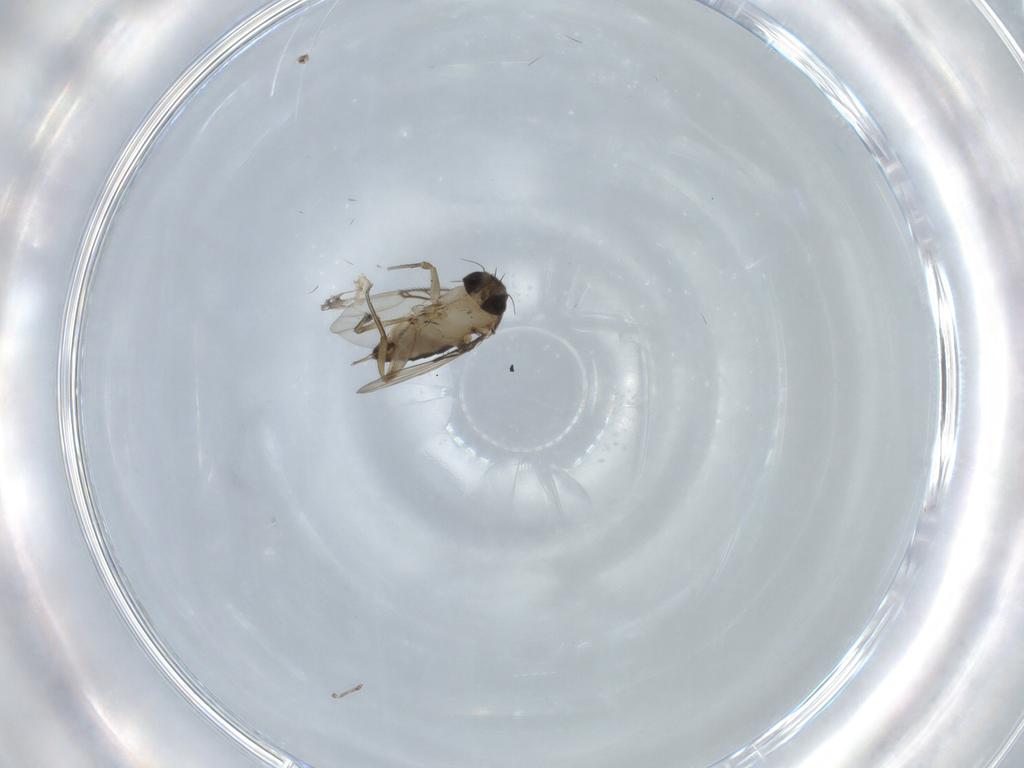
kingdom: Animalia
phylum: Arthropoda
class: Insecta
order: Diptera
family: Phoridae
